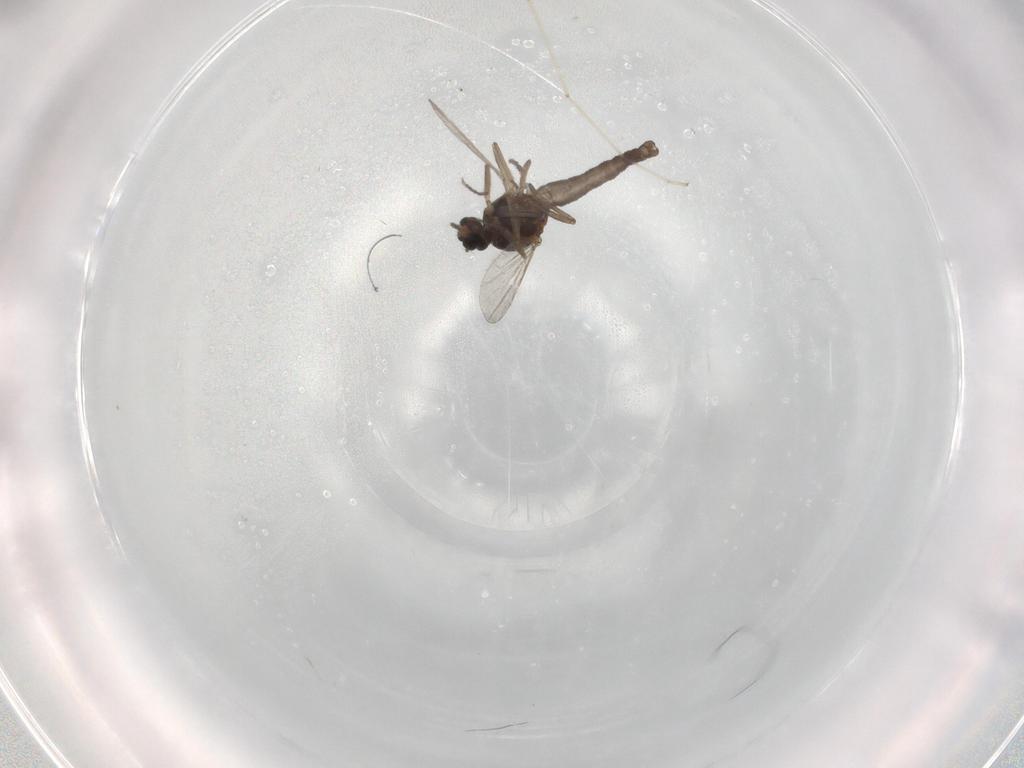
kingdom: Animalia
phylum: Arthropoda
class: Insecta
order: Diptera
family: Ceratopogonidae
